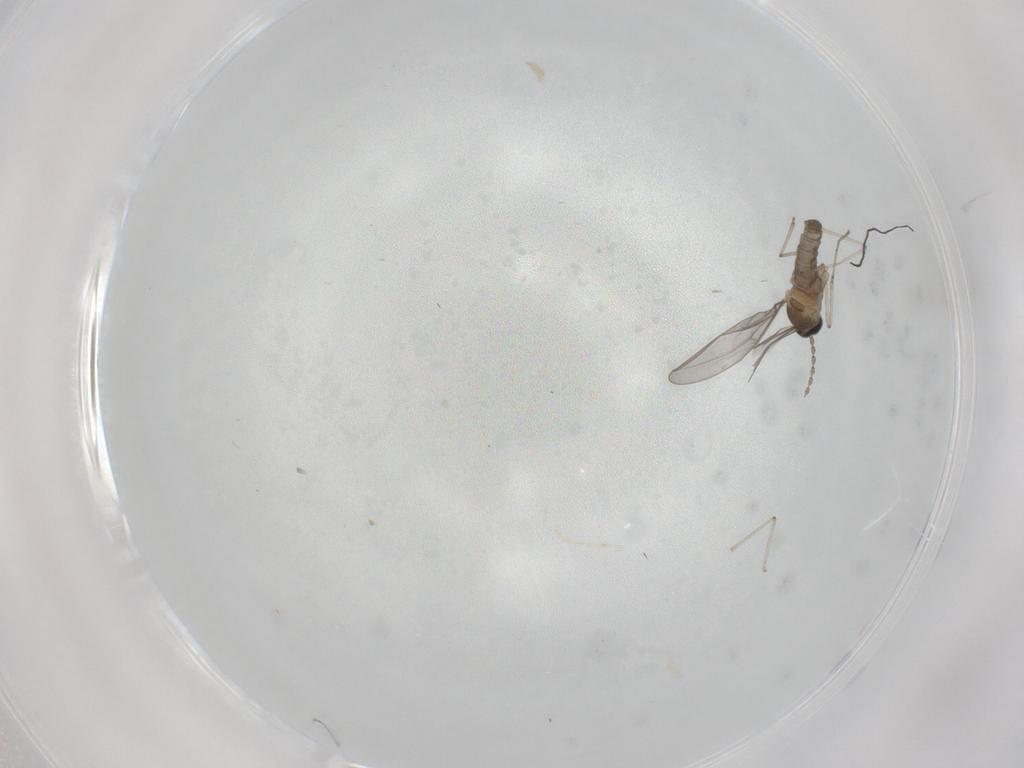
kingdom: Animalia
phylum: Arthropoda
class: Insecta
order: Diptera
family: Cecidomyiidae
